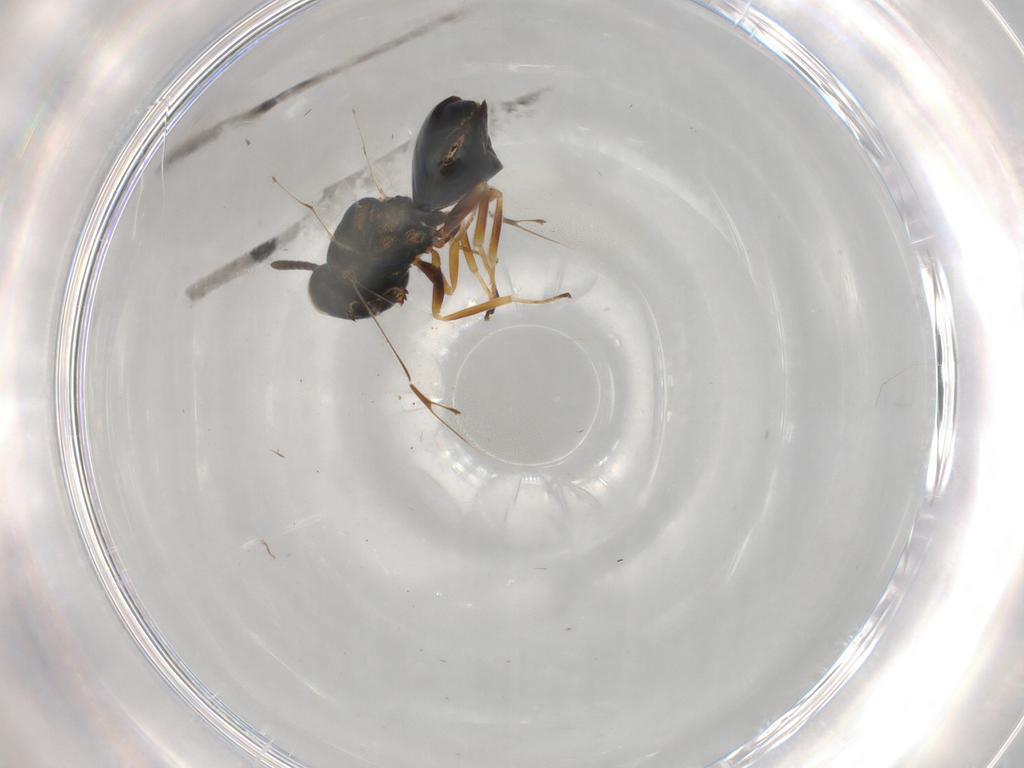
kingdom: Animalia
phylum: Arthropoda
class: Insecta
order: Hymenoptera
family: Pteromalidae
